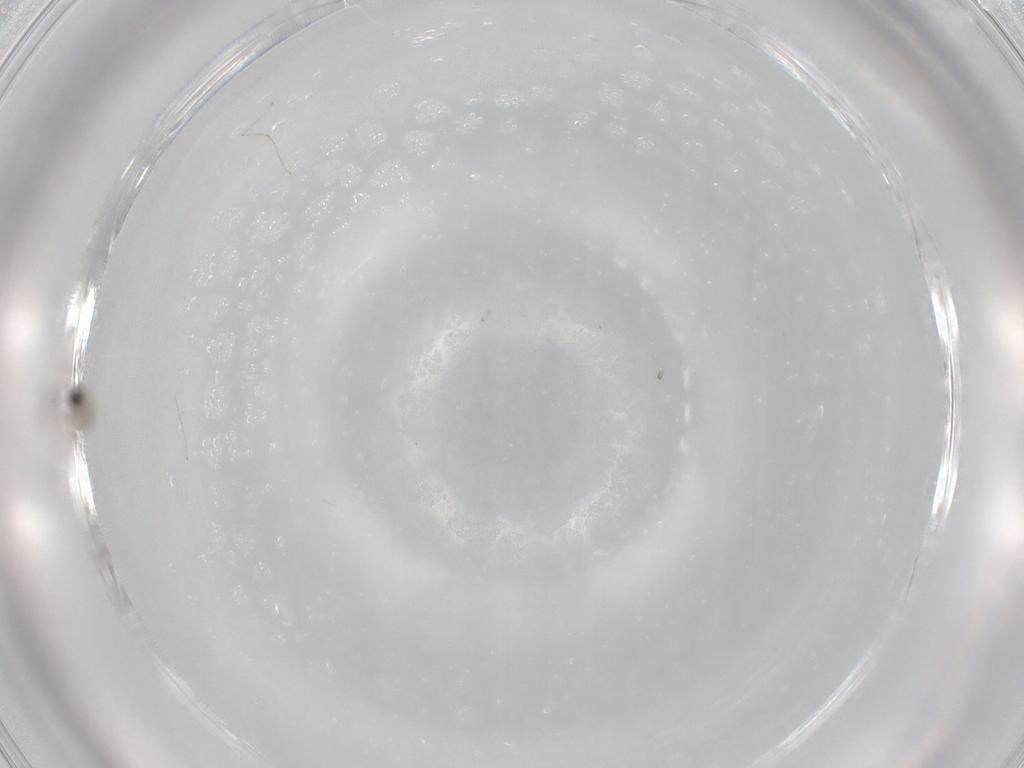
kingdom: Animalia
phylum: Arthropoda
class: Insecta
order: Diptera
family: Cecidomyiidae
